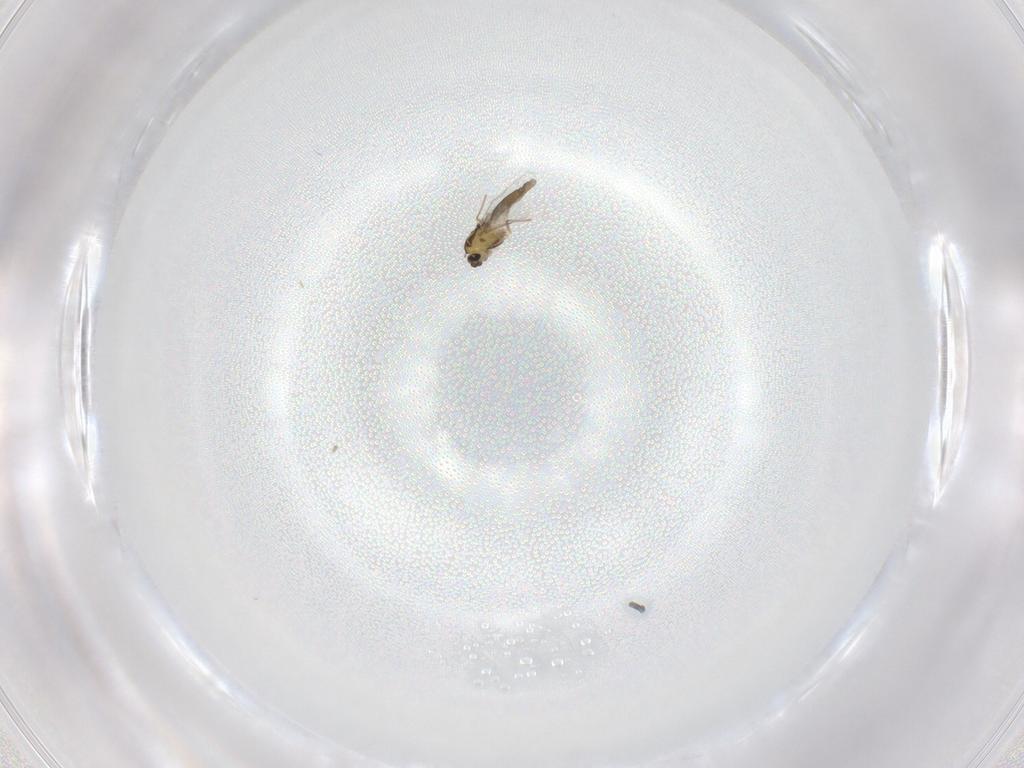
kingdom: Animalia
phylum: Arthropoda
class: Insecta
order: Diptera
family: Chironomidae
